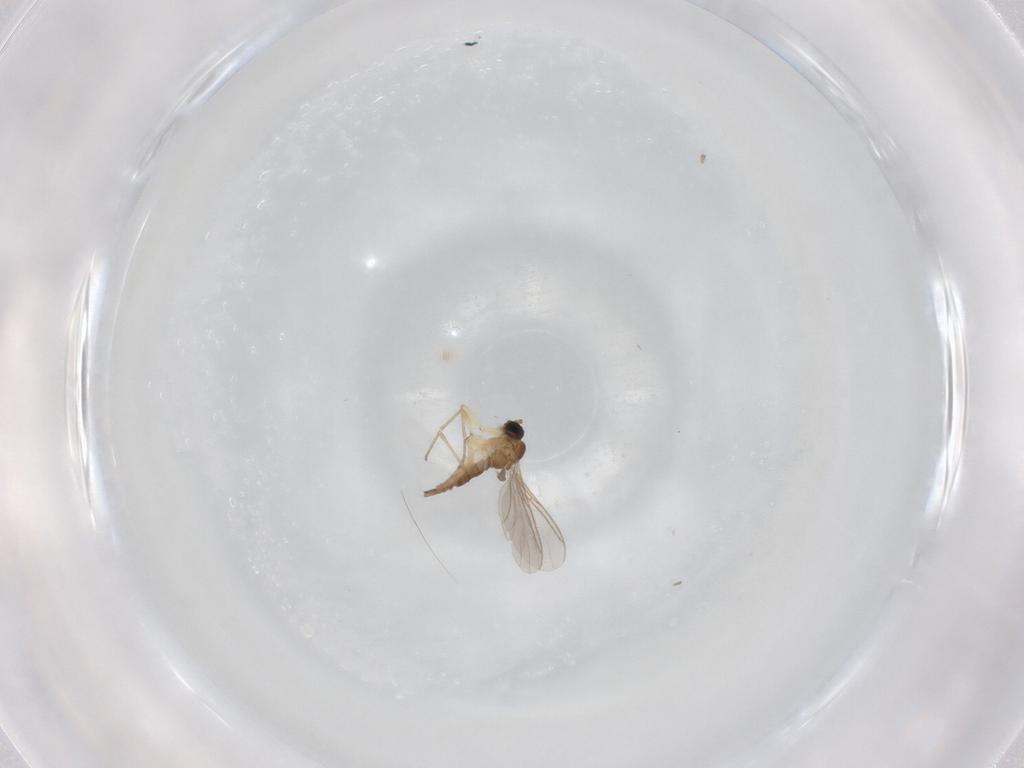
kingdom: Animalia
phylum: Arthropoda
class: Insecta
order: Diptera
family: Sciaridae
